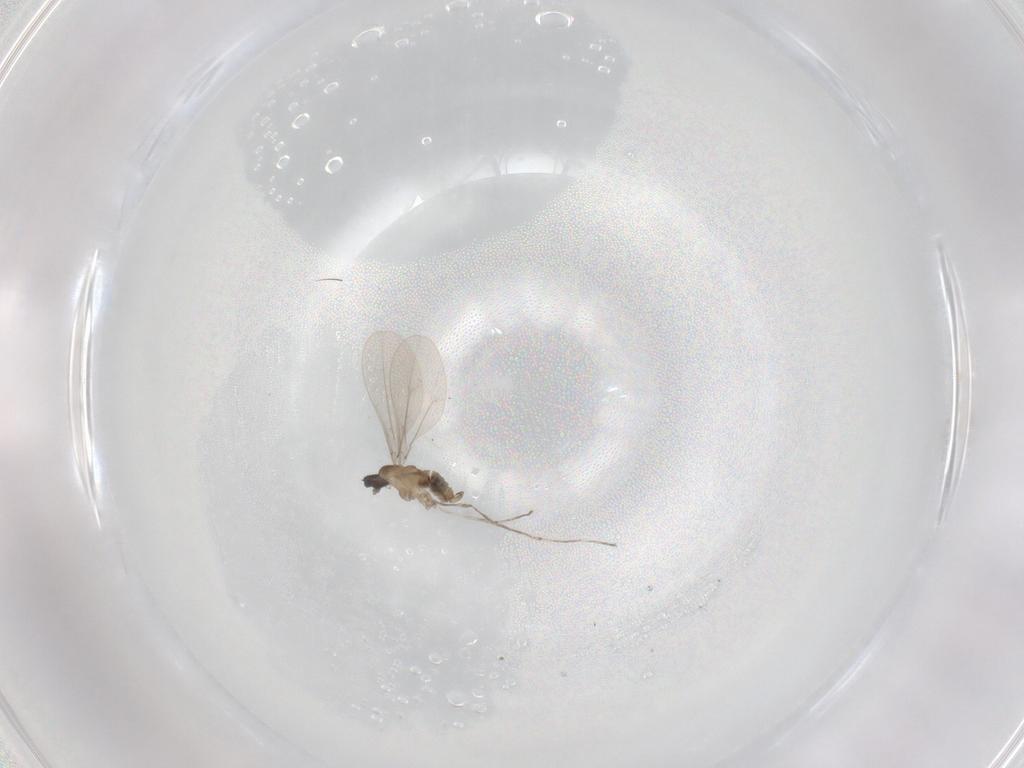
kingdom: Animalia
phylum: Arthropoda
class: Insecta
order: Diptera
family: Cecidomyiidae
